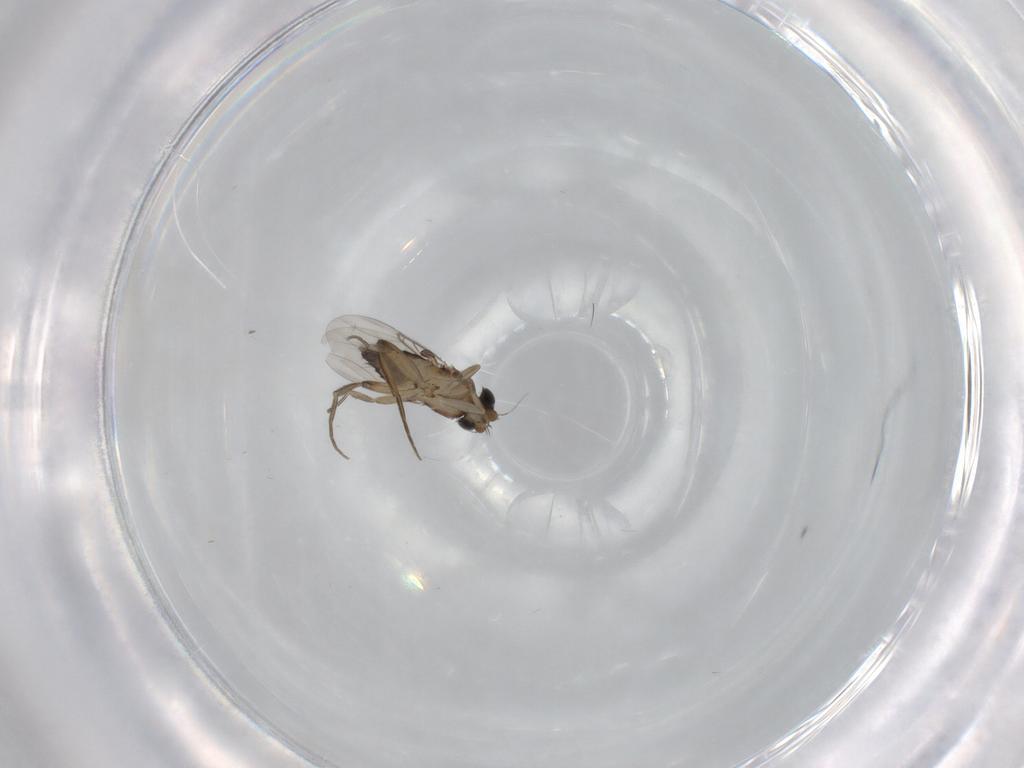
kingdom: Animalia
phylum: Arthropoda
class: Insecta
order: Diptera
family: Phoridae
